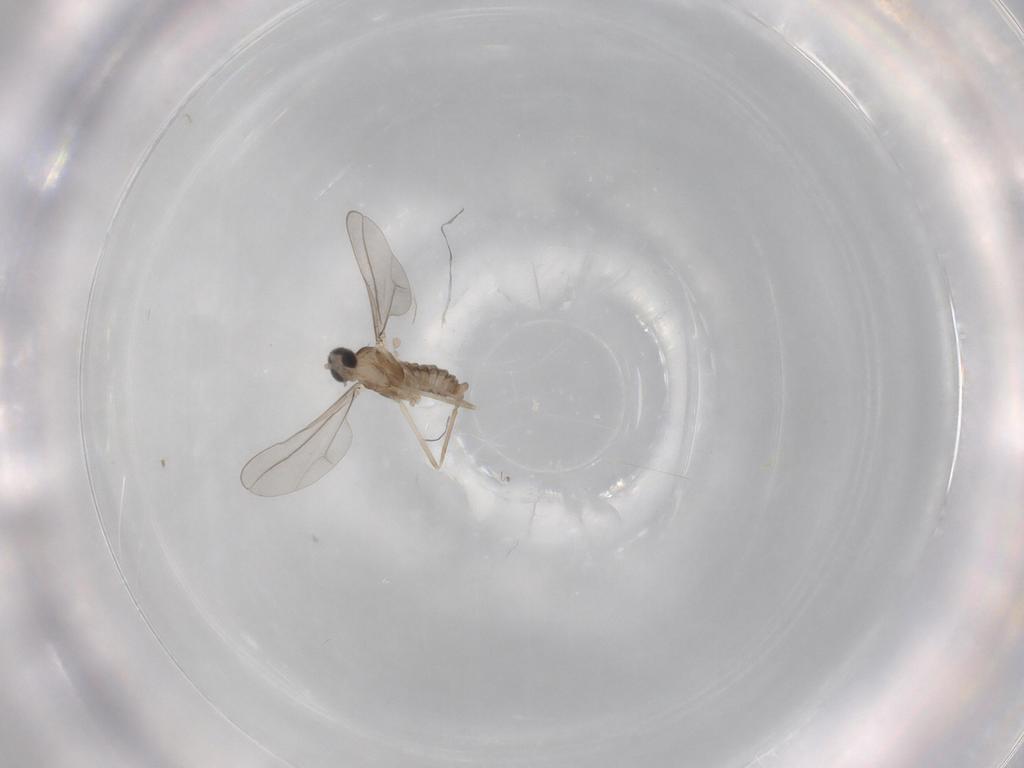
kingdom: Animalia
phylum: Arthropoda
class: Insecta
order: Diptera
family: Cecidomyiidae
